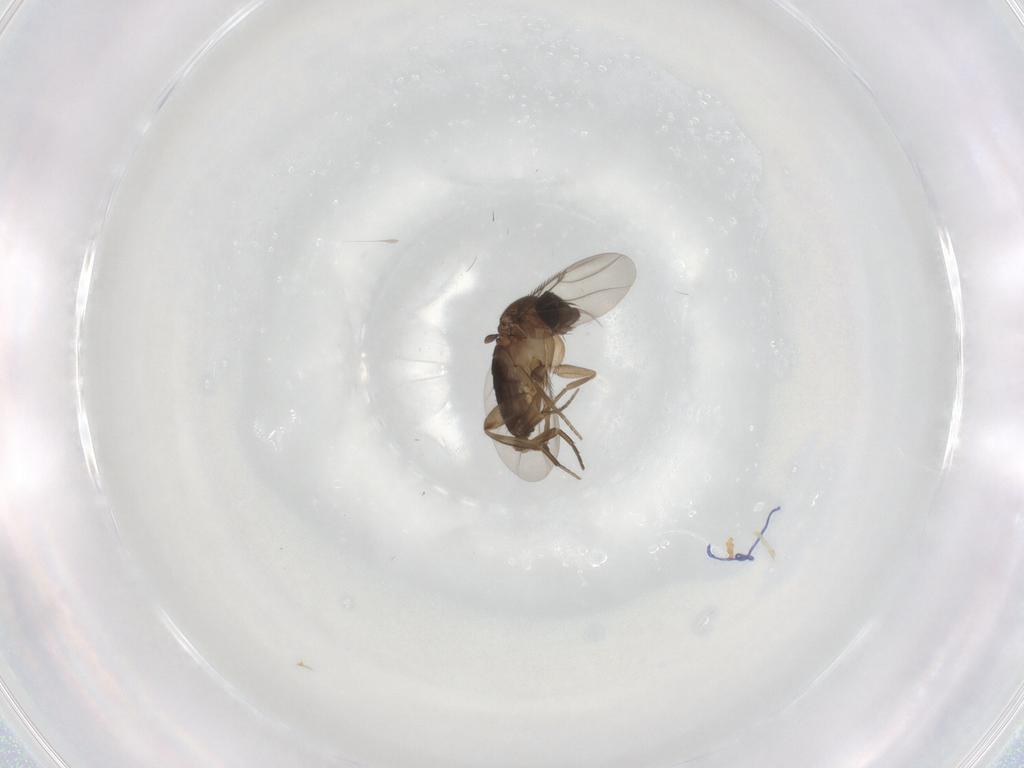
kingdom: Animalia
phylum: Arthropoda
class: Insecta
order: Diptera
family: Phoridae
